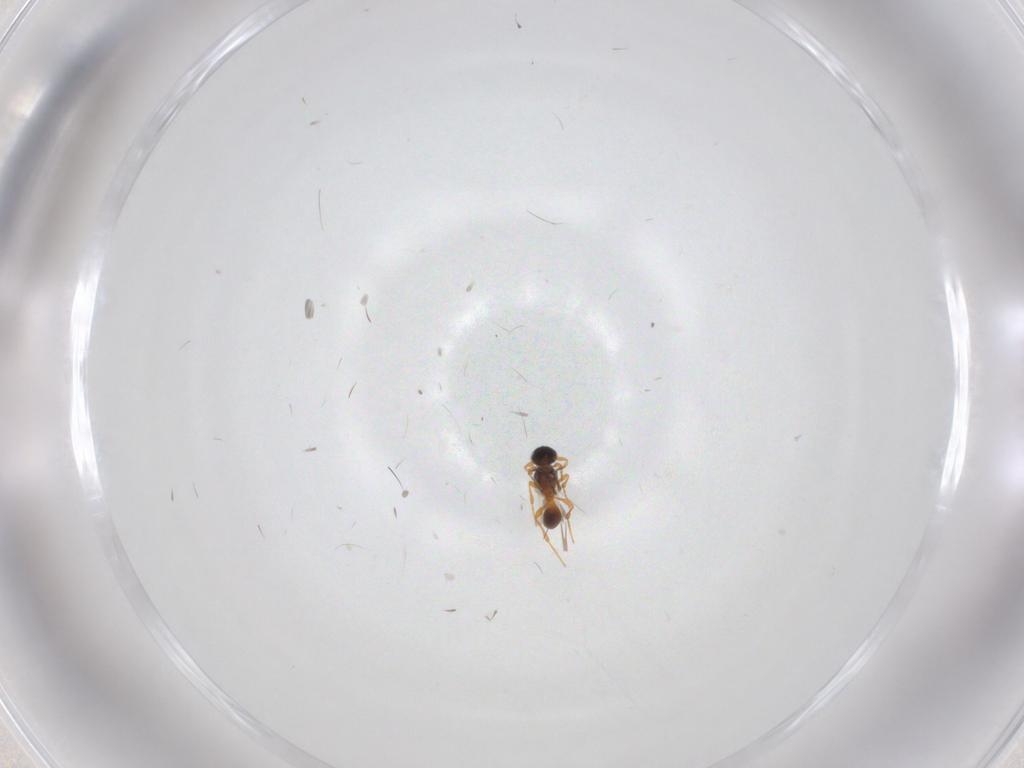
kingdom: Animalia
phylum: Arthropoda
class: Insecta
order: Hymenoptera
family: Platygastridae
